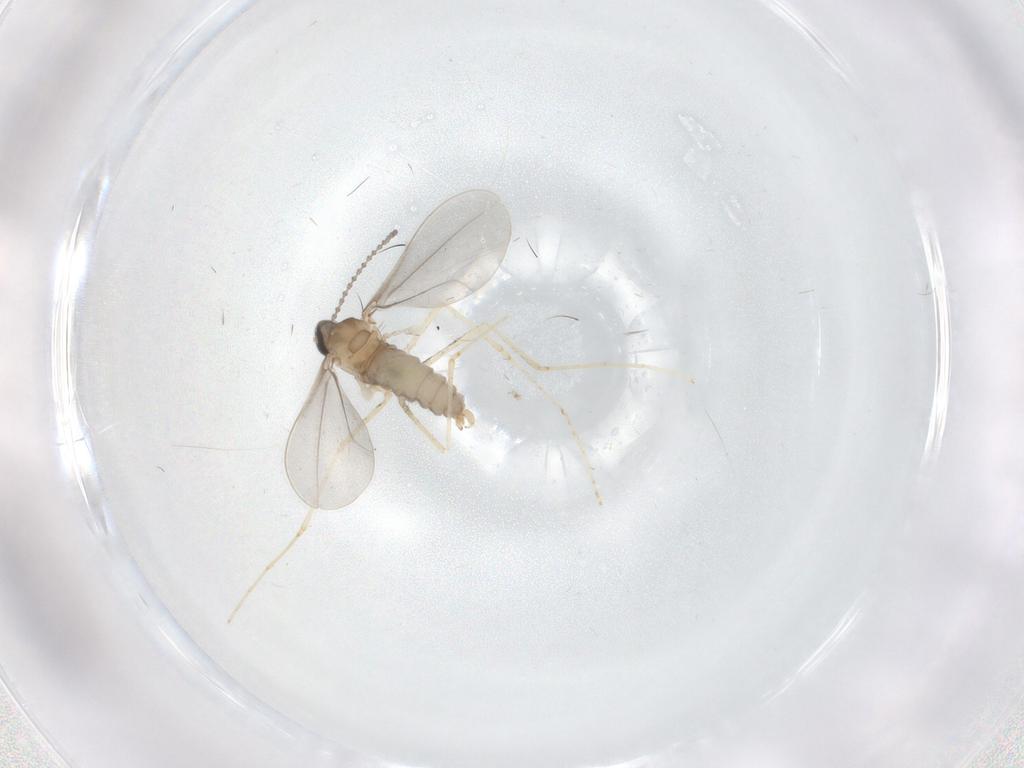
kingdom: Animalia
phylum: Arthropoda
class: Insecta
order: Diptera
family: Cecidomyiidae
